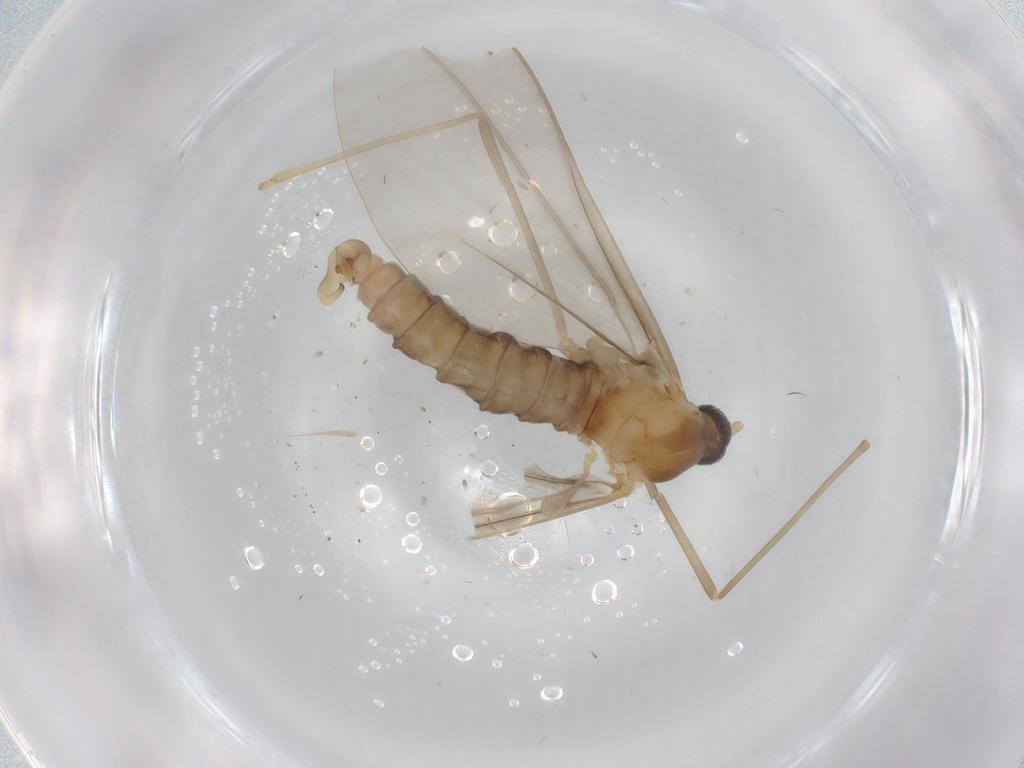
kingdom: Animalia
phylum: Arthropoda
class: Insecta
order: Diptera
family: Cecidomyiidae
